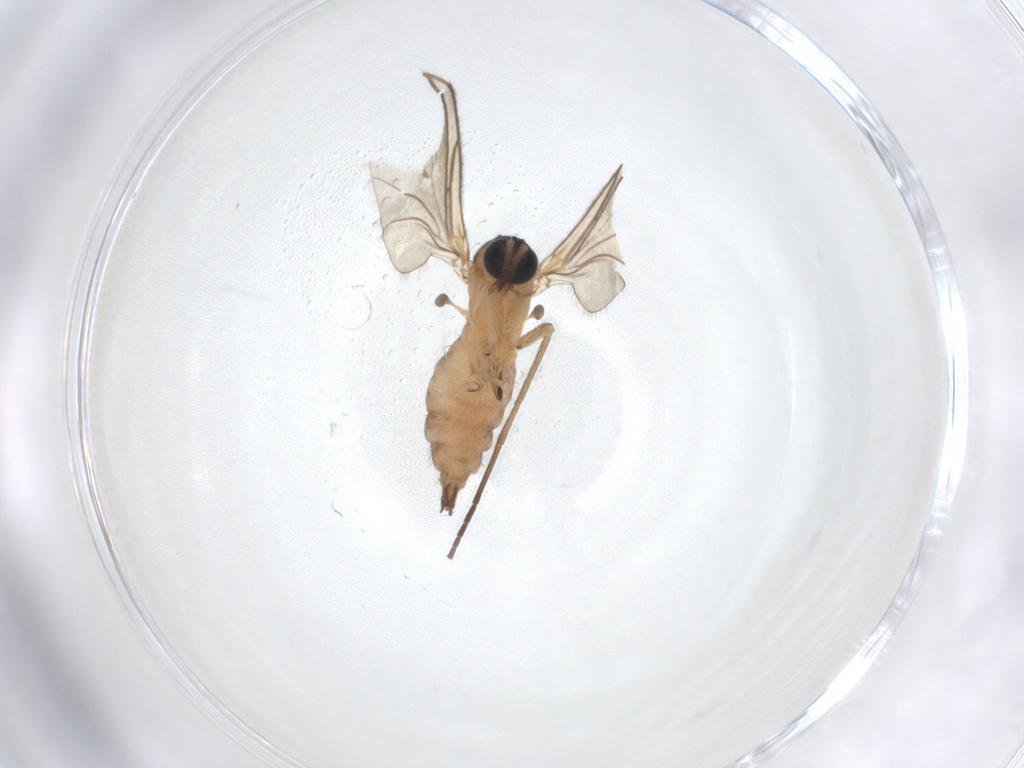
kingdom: Animalia
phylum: Arthropoda
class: Insecta
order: Diptera
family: Sciaridae
